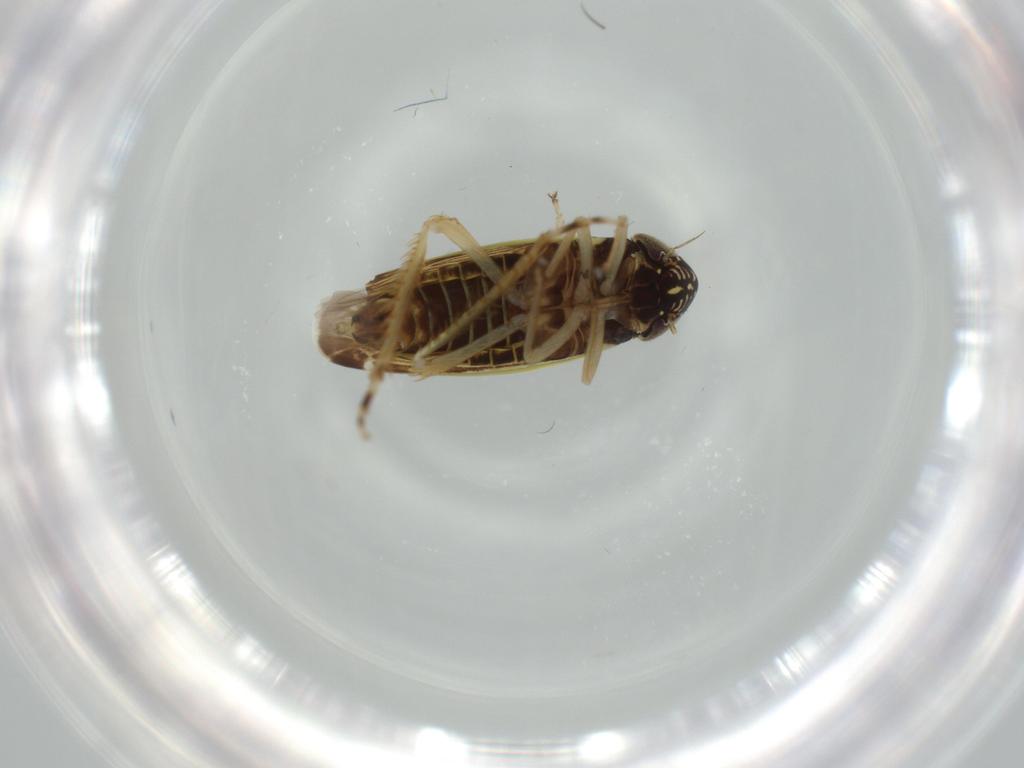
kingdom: Animalia
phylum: Arthropoda
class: Insecta
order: Hemiptera
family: Cicadellidae
